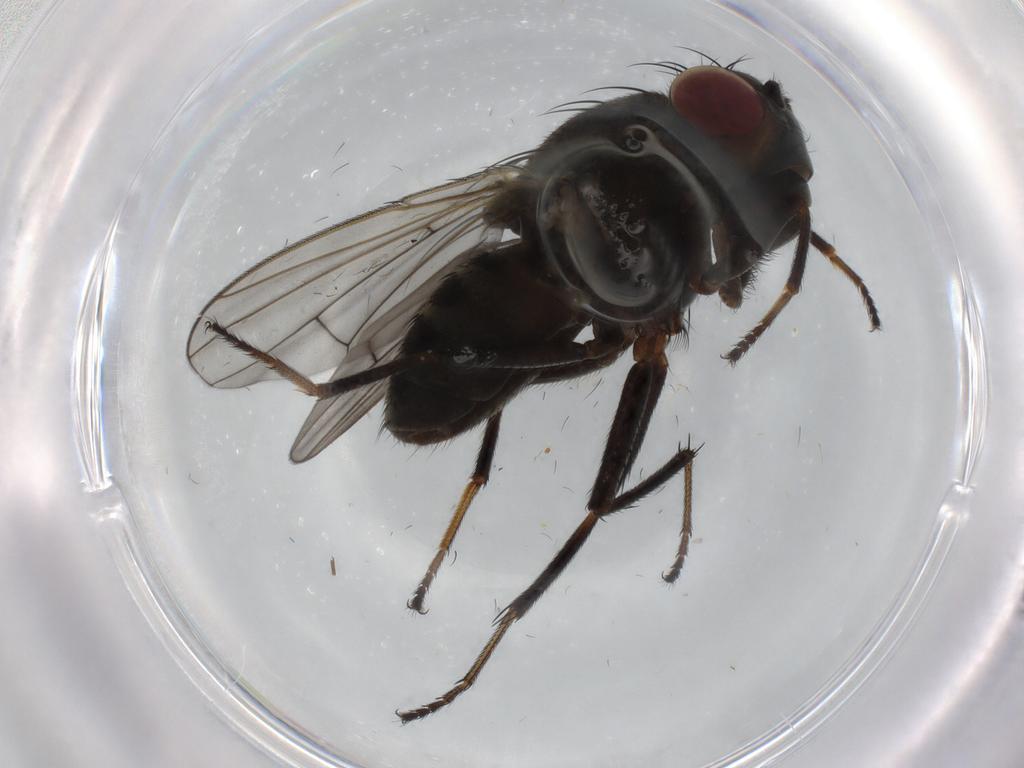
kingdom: Animalia
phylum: Arthropoda
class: Insecta
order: Diptera
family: Ephydridae
